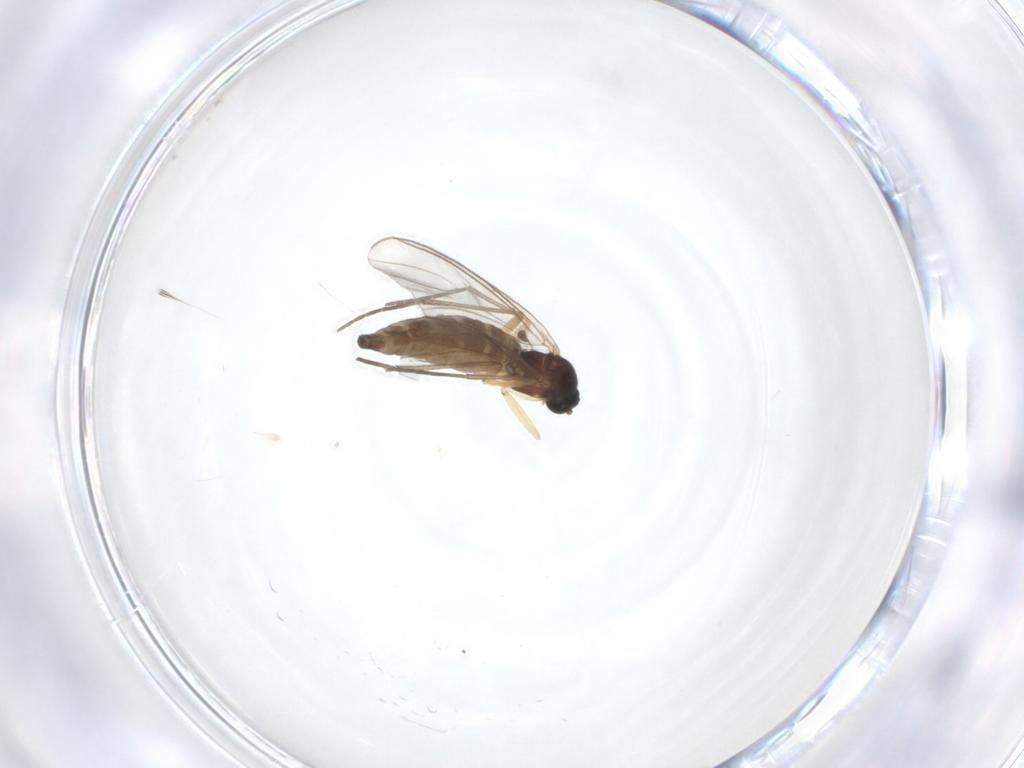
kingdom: Animalia
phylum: Arthropoda
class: Insecta
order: Diptera
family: Sciaridae
